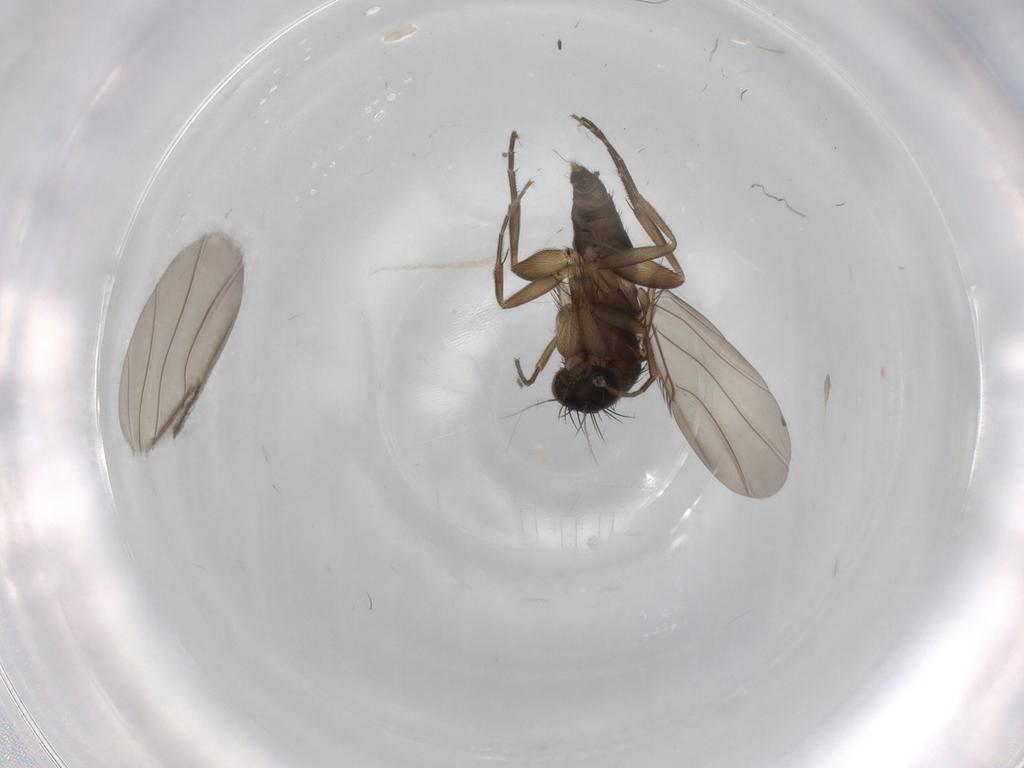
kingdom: Animalia
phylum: Arthropoda
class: Insecta
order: Diptera
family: Phoridae
